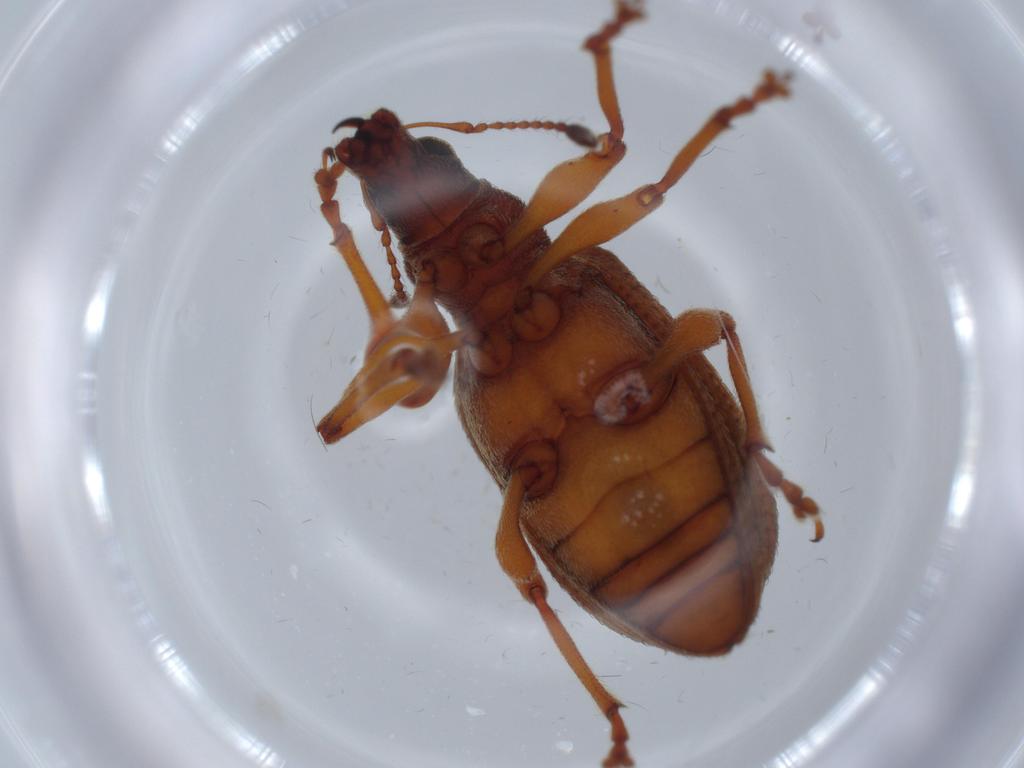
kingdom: Animalia
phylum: Arthropoda
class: Insecta
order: Coleoptera
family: Curculionidae
